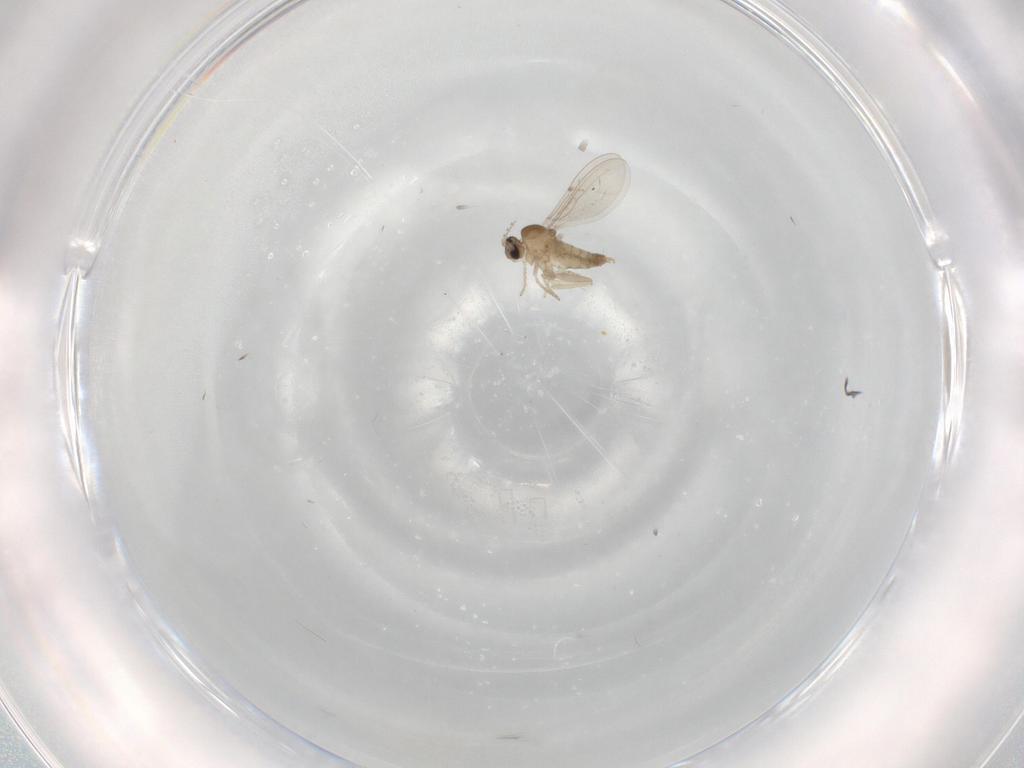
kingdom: Animalia
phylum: Arthropoda
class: Insecta
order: Diptera
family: Cecidomyiidae
